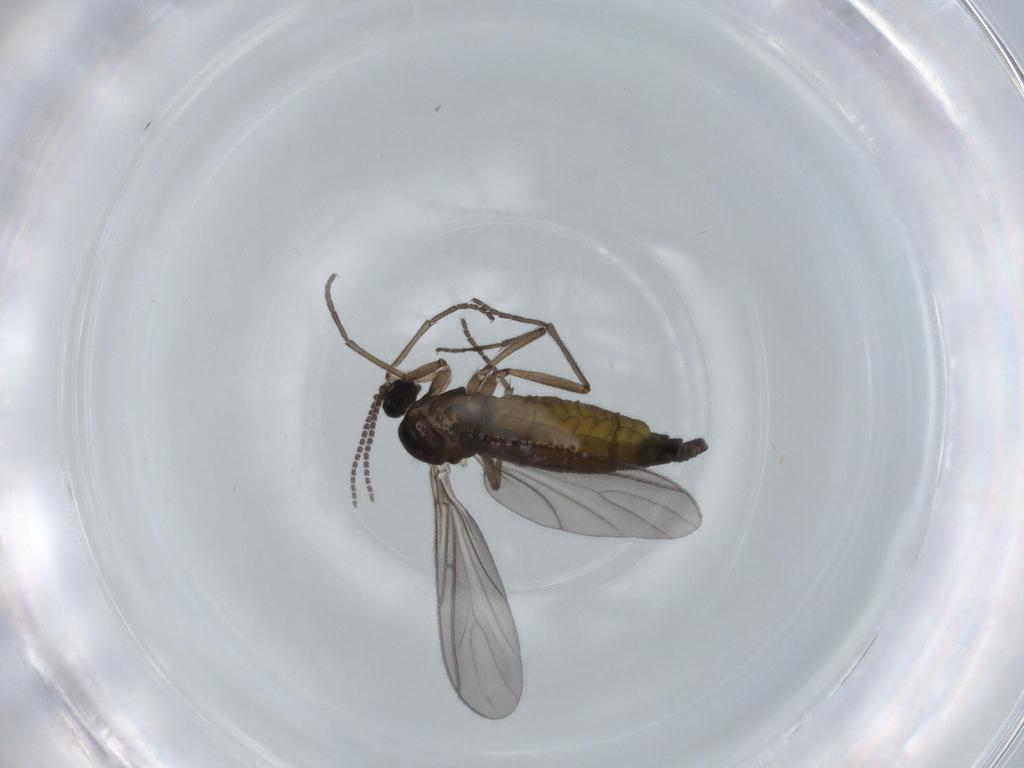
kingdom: Animalia
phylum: Arthropoda
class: Insecta
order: Diptera
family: Sciaridae
